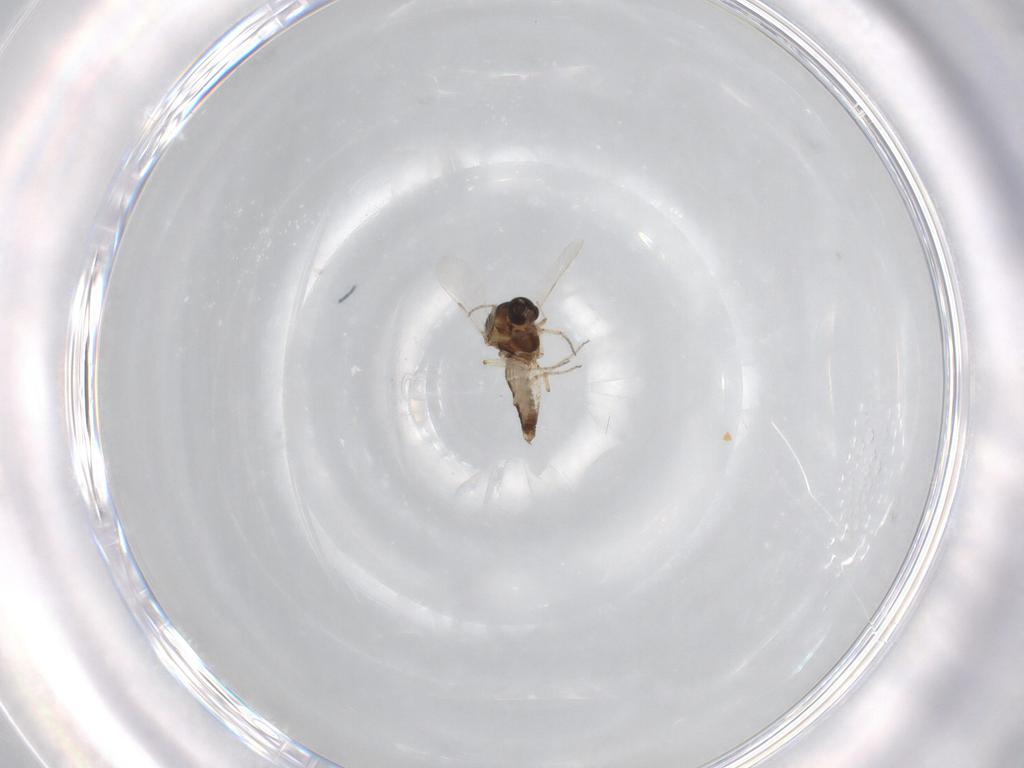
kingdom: Animalia
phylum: Arthropoda
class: Insecta
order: Diptera
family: Ceratopogonidae
